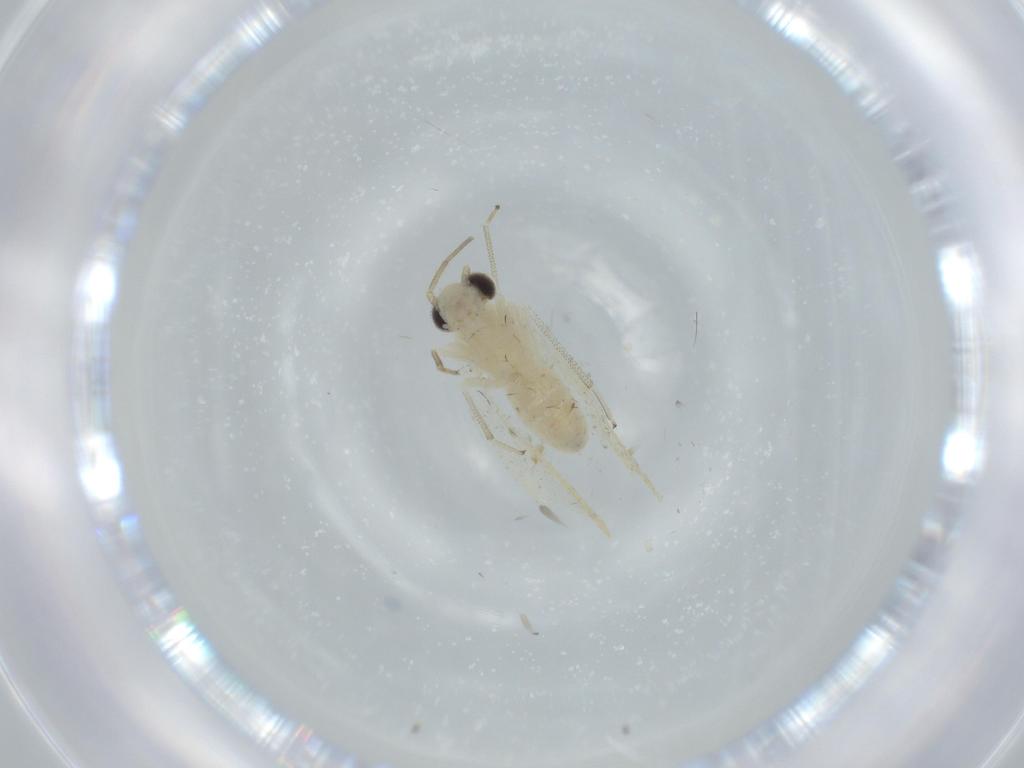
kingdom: Animalia
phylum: Arthropoda
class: Insecta
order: Psocodea
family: Caeciliusidae
